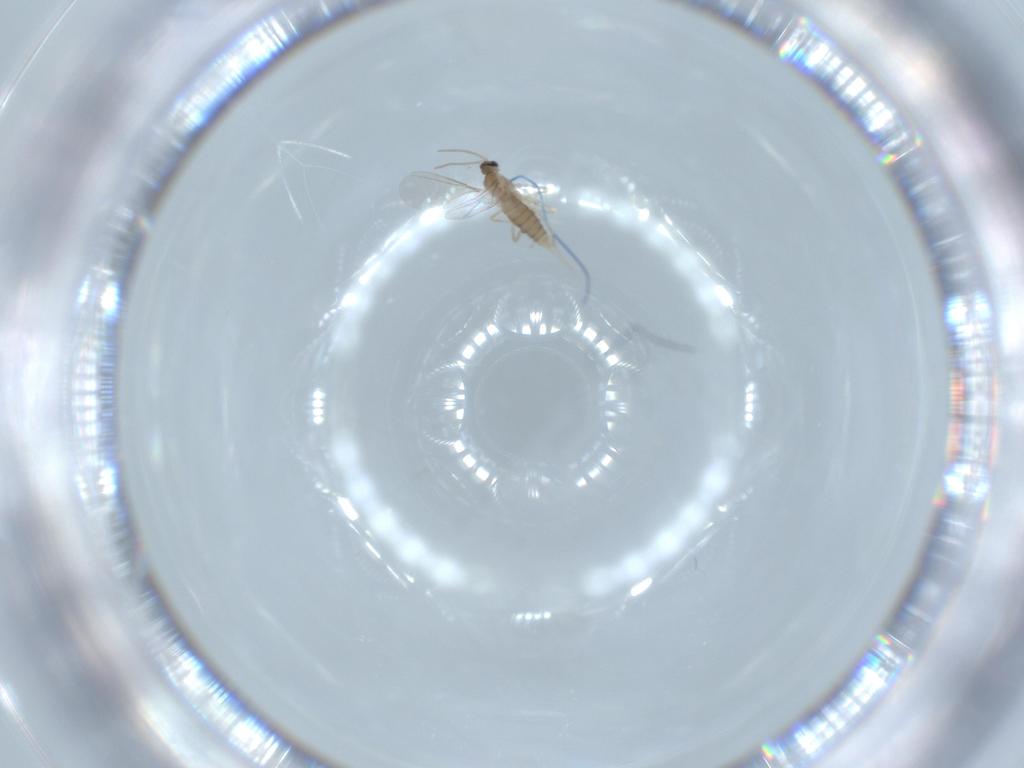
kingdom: Animalia
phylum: Arthropoda
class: Insecta
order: Diptera
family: Cecidomyiidae
